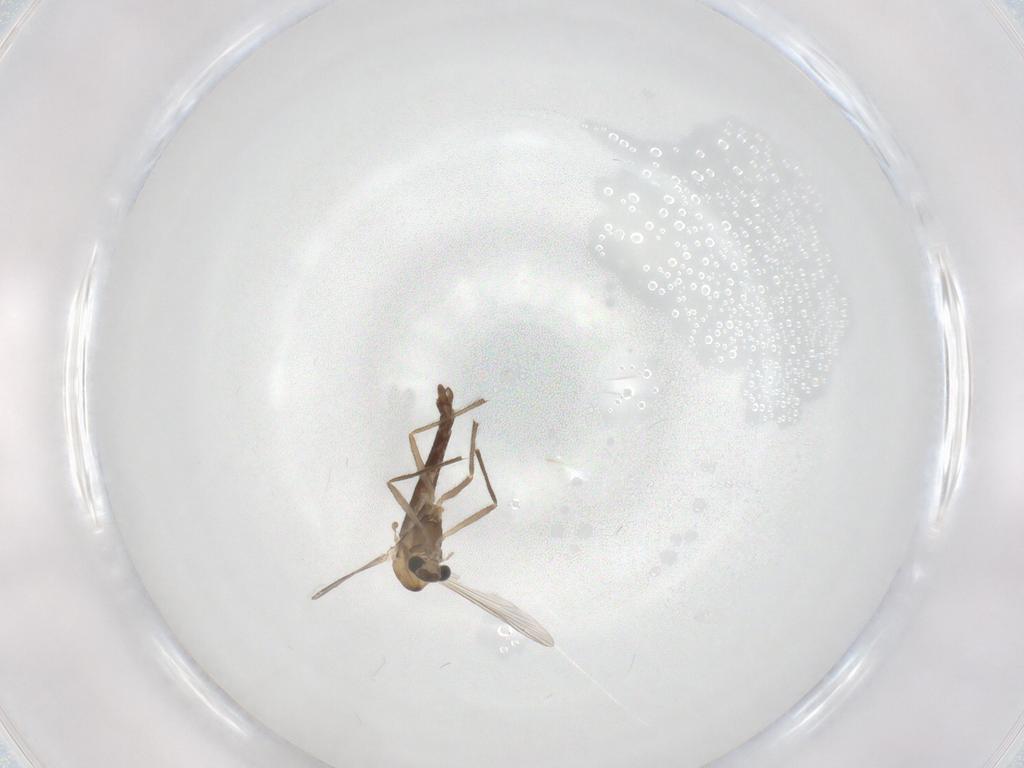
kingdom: Animalia
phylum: Arthropoda
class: Insecta
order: Diptera
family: Chironomidae
